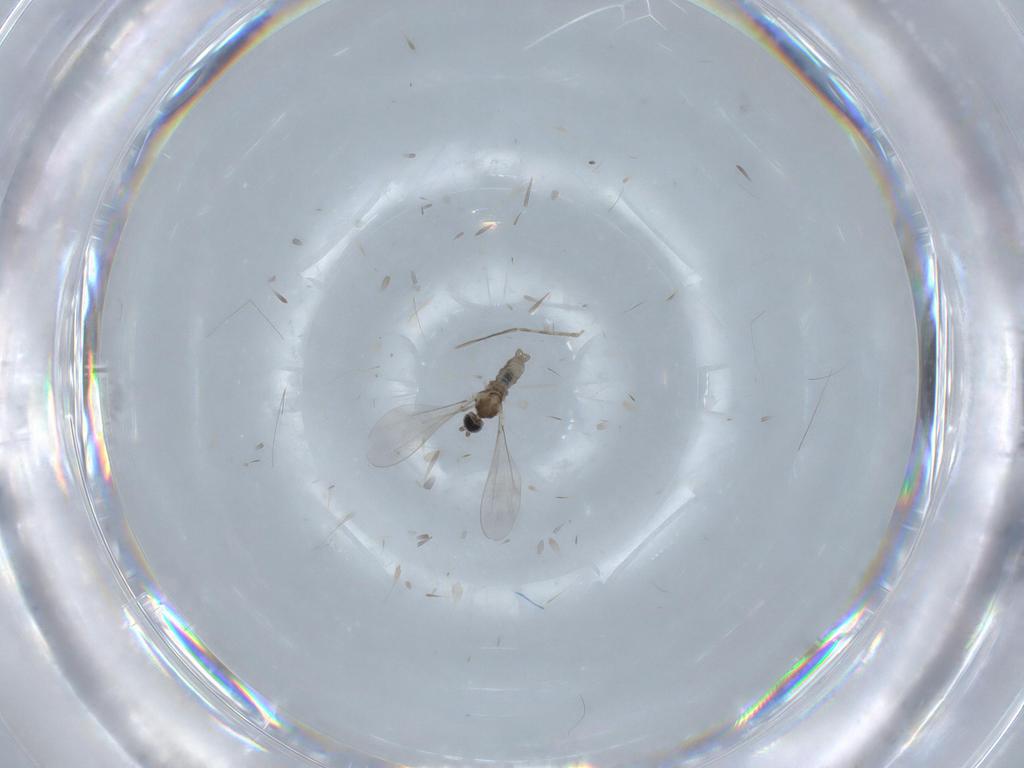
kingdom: Animalia
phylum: Arthropoda
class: Insecta
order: Diptera
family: Cecidomyiidae
